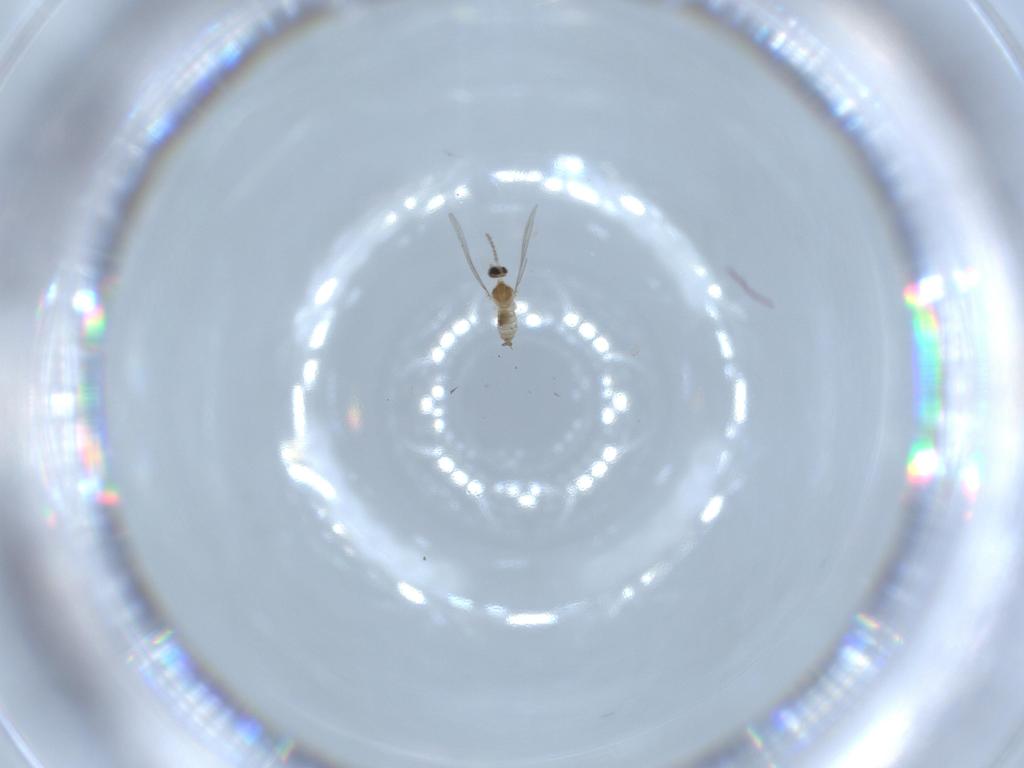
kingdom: Animalia
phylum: Arthropoda
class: Insecta
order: Diptera
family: Cecidomyiidae
